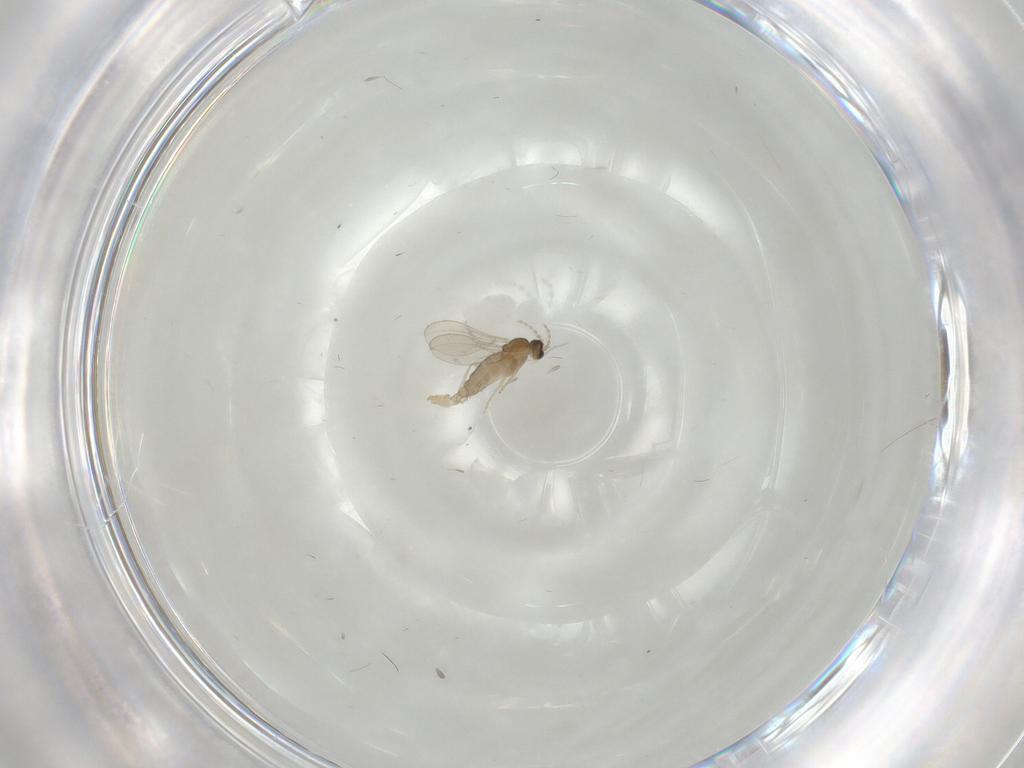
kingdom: Animalia
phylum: Arthropoda
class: Insecta
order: Diptera
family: Cecidomyiidae
